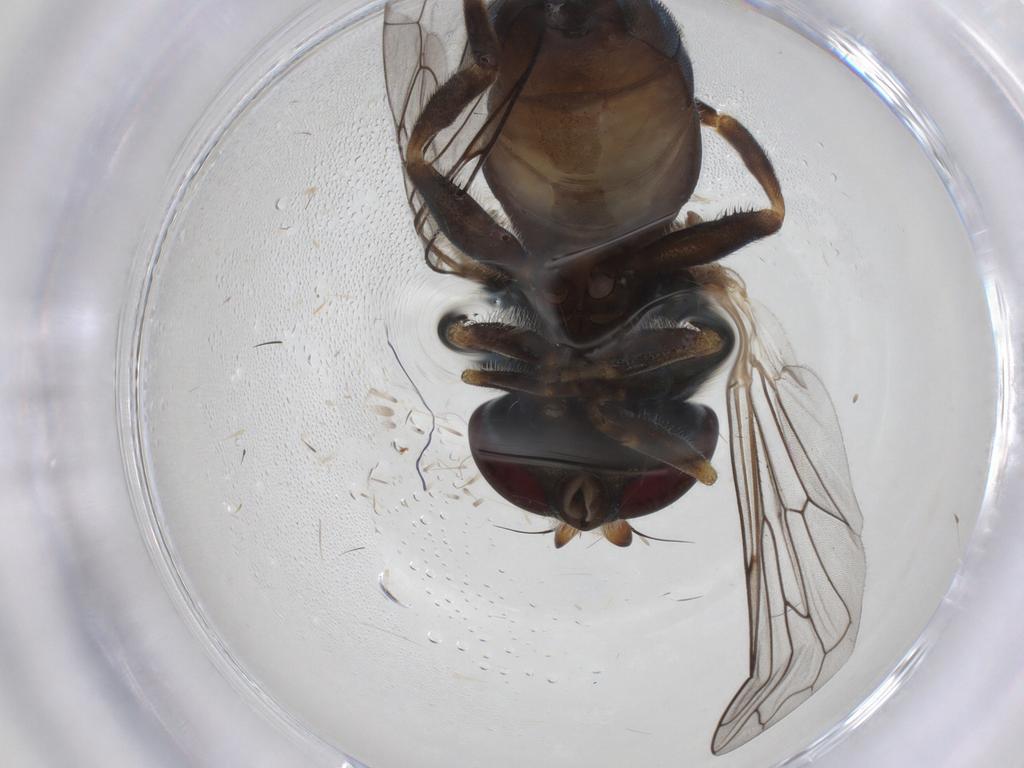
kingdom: Animalia
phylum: Arthropoda
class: Insecta
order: Diptera
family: Syrphidae
